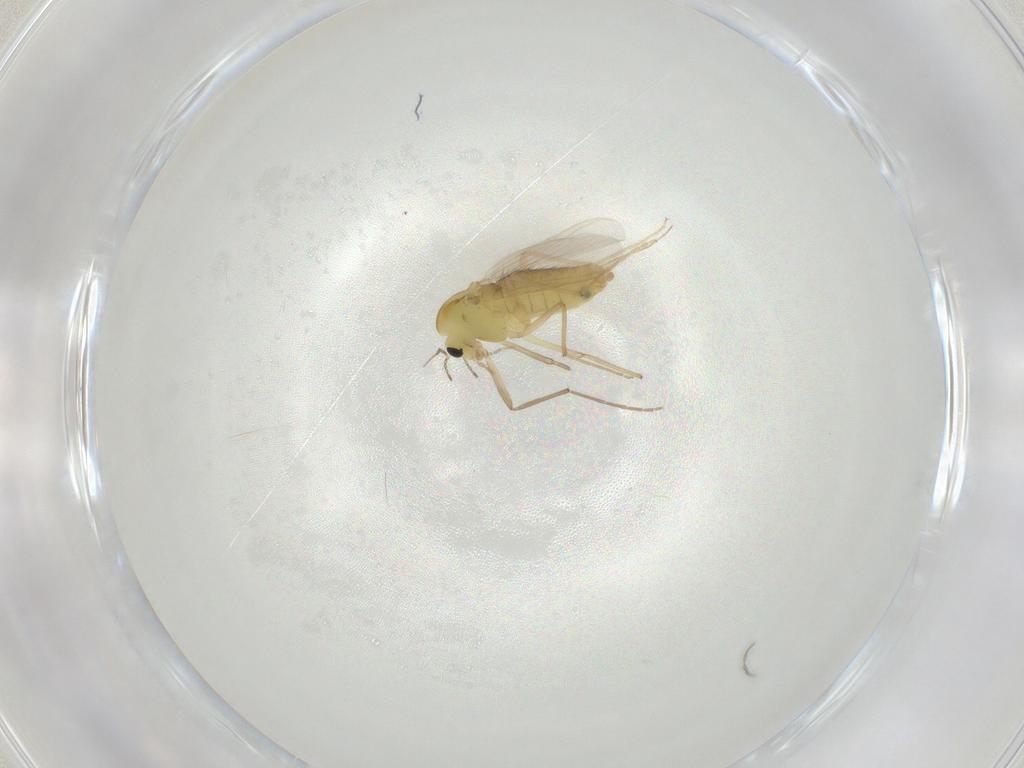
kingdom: Animalia
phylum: Arthropoda
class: Insecta
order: Diptera
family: Chironomidae
